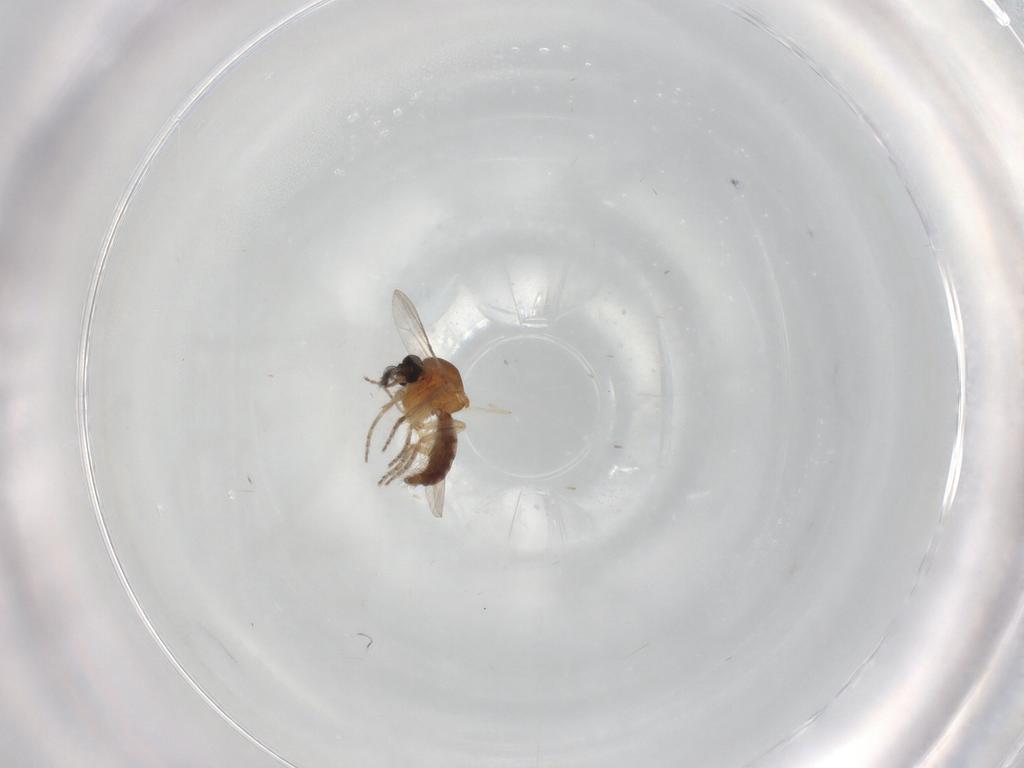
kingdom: Animalia
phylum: Arthropoda
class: Insecta
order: Diptera
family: Ceratopogonidae
